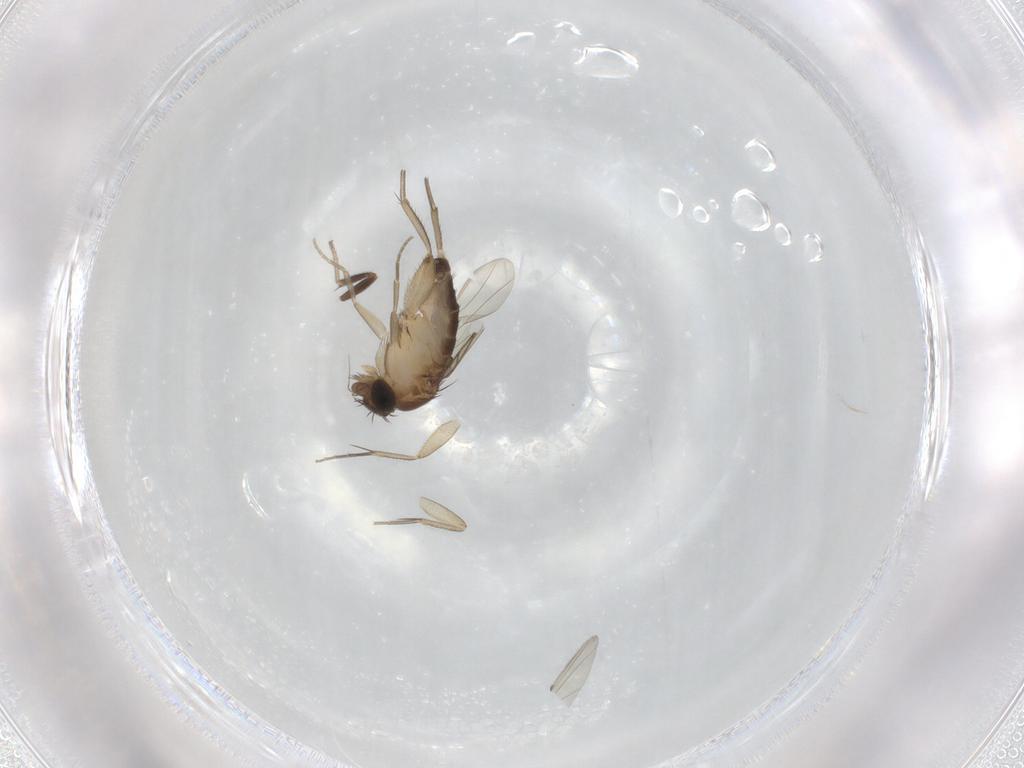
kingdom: Animalia
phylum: Arthropoda
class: Insecta
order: Diptera
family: Phoridae
